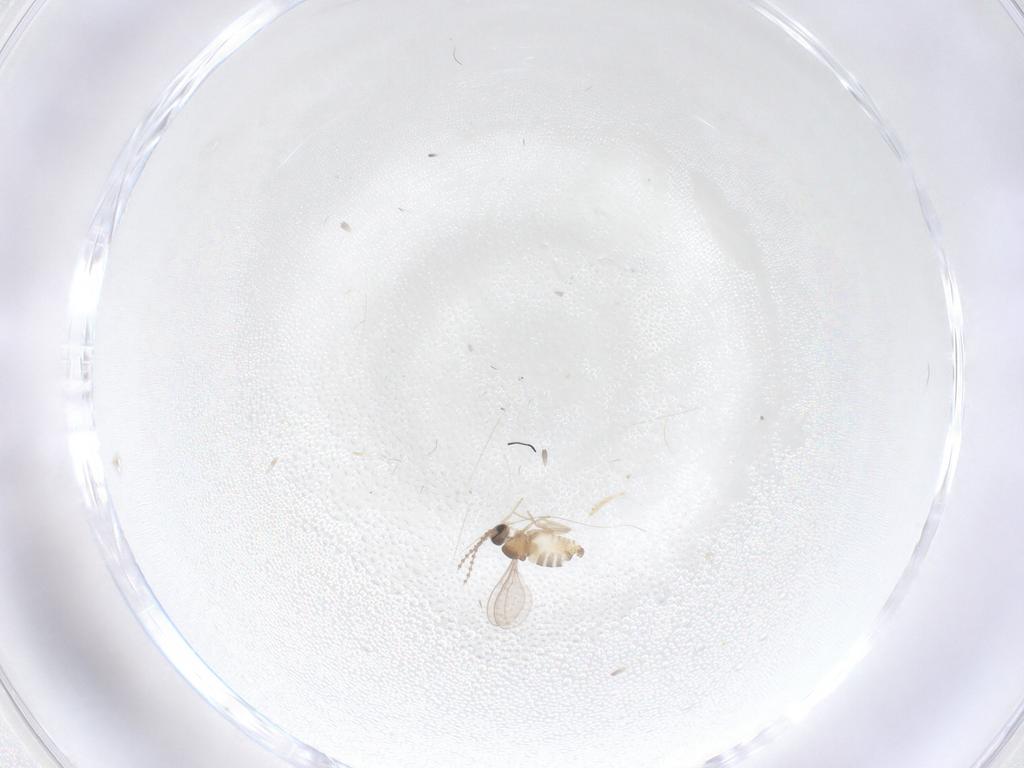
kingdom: Animalia
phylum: Arthropoda
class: Insecta
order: Diptera
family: Cecidomyiidae
